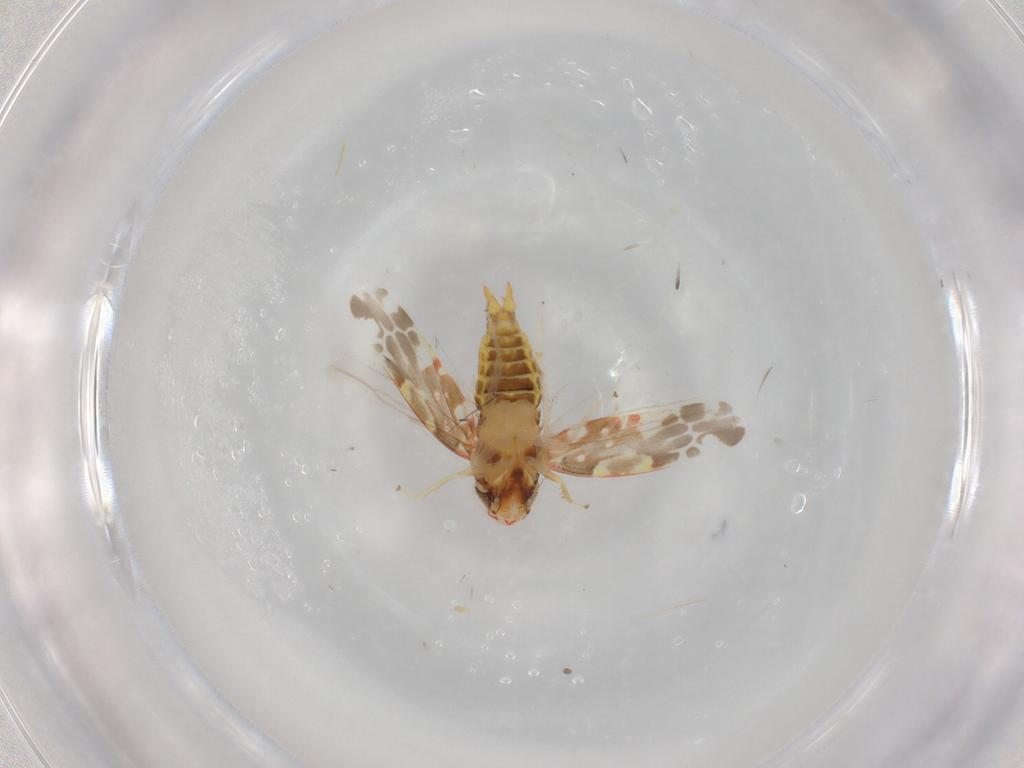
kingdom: Animalia
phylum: Arthropoda
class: Insecta
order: Hemiptera
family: Cicadellidae
